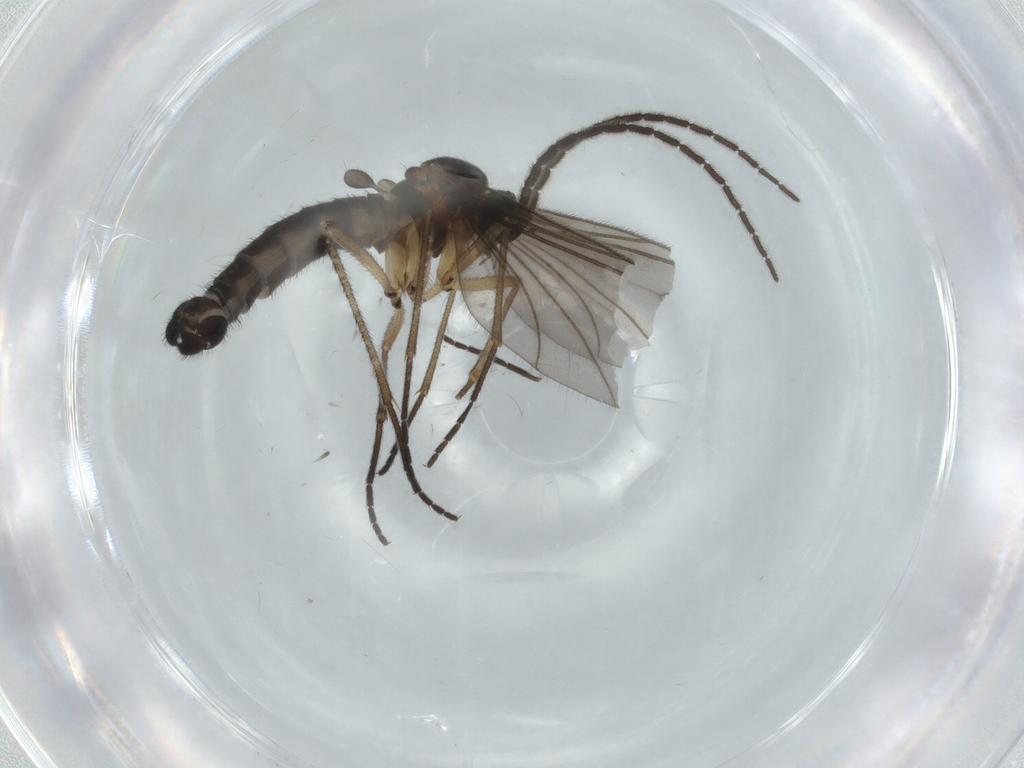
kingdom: Animalia
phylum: Arthropoda
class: Insecta
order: Diptera
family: Sciaridae
